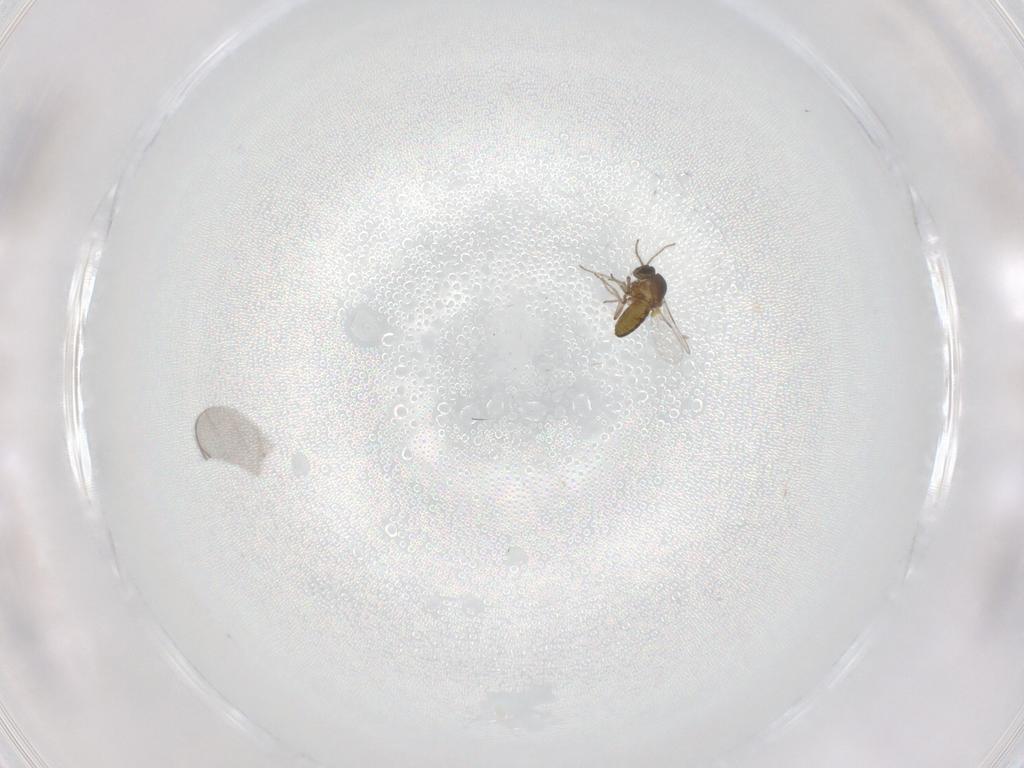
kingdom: Animalia
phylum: Arthropoda
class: Insecta
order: Diptera
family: Ceratopogonidae
